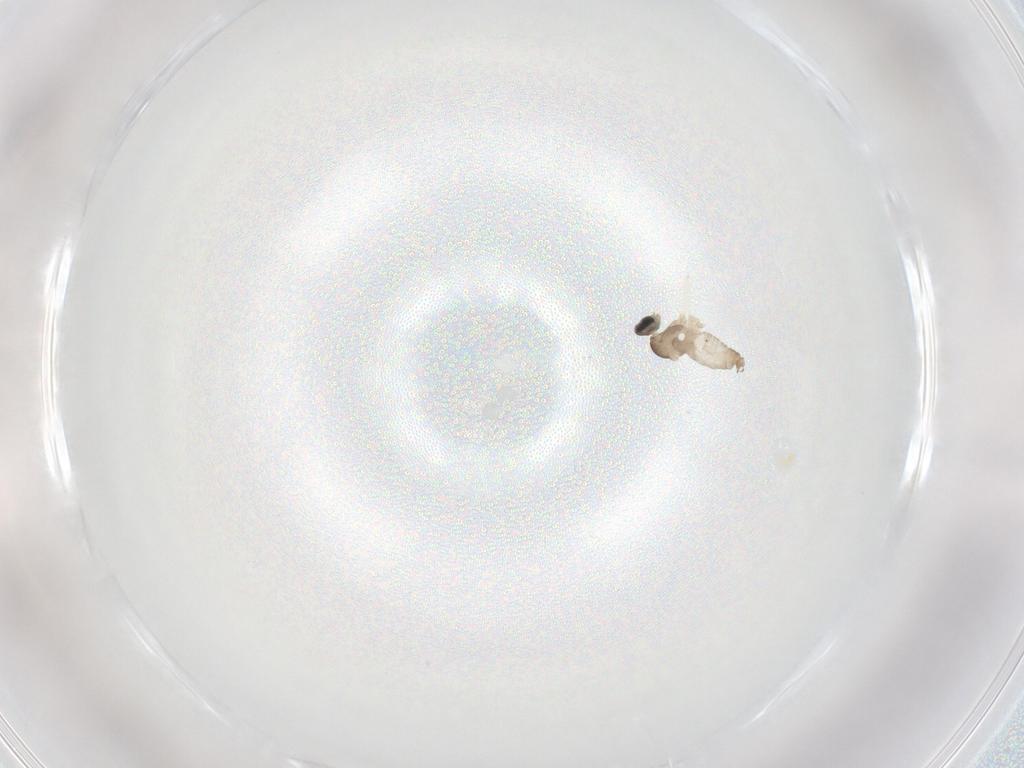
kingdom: Animalia
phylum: Arthropoda
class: Insecta
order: Diptera
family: Cecidomyiidae
